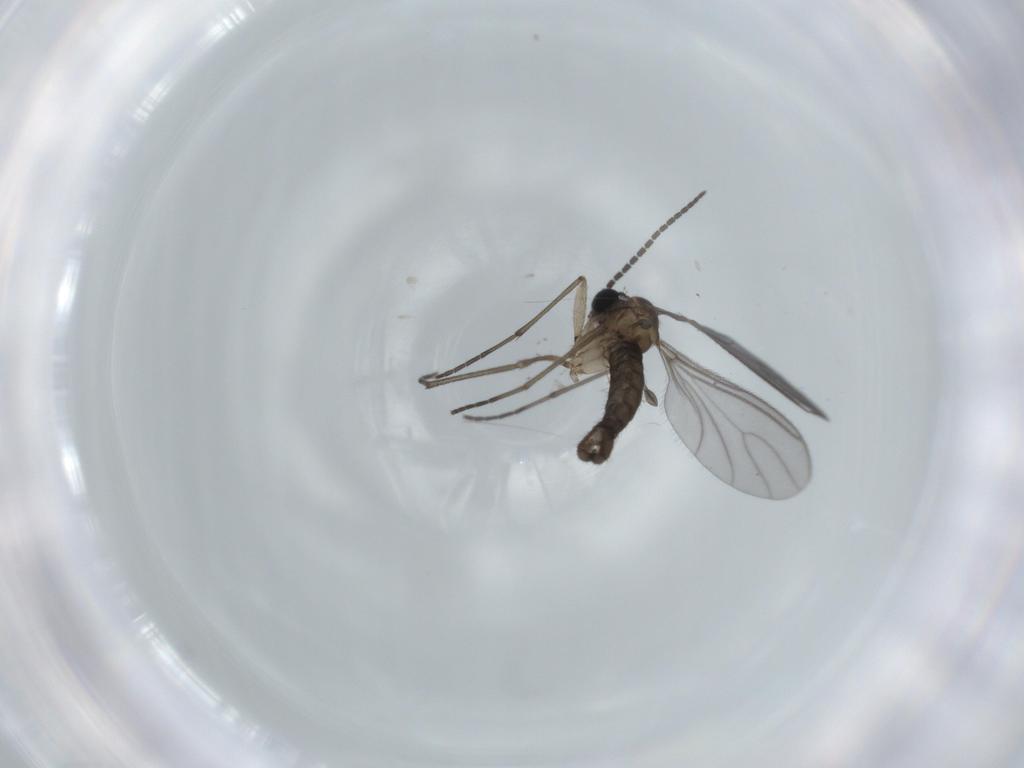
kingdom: Animalia
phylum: Arthropoda
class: Insecta
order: Diptera
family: Sciaridae
